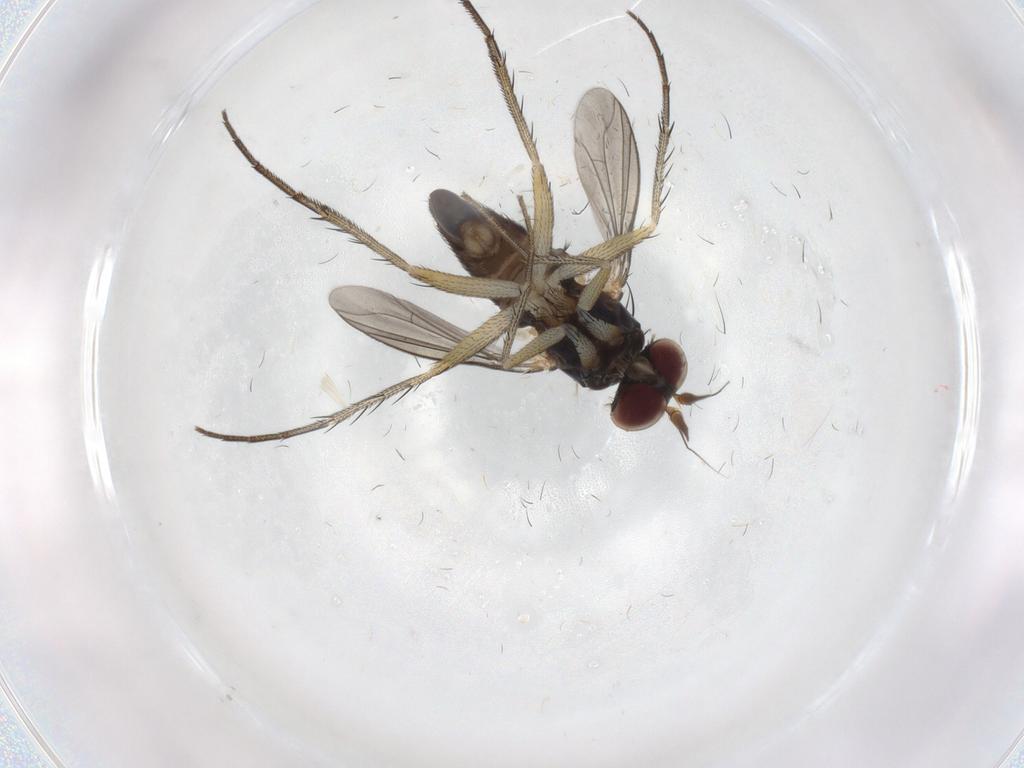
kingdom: Animalia
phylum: Arthropoda
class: Insecta
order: Diptera
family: Dolichopodidae
